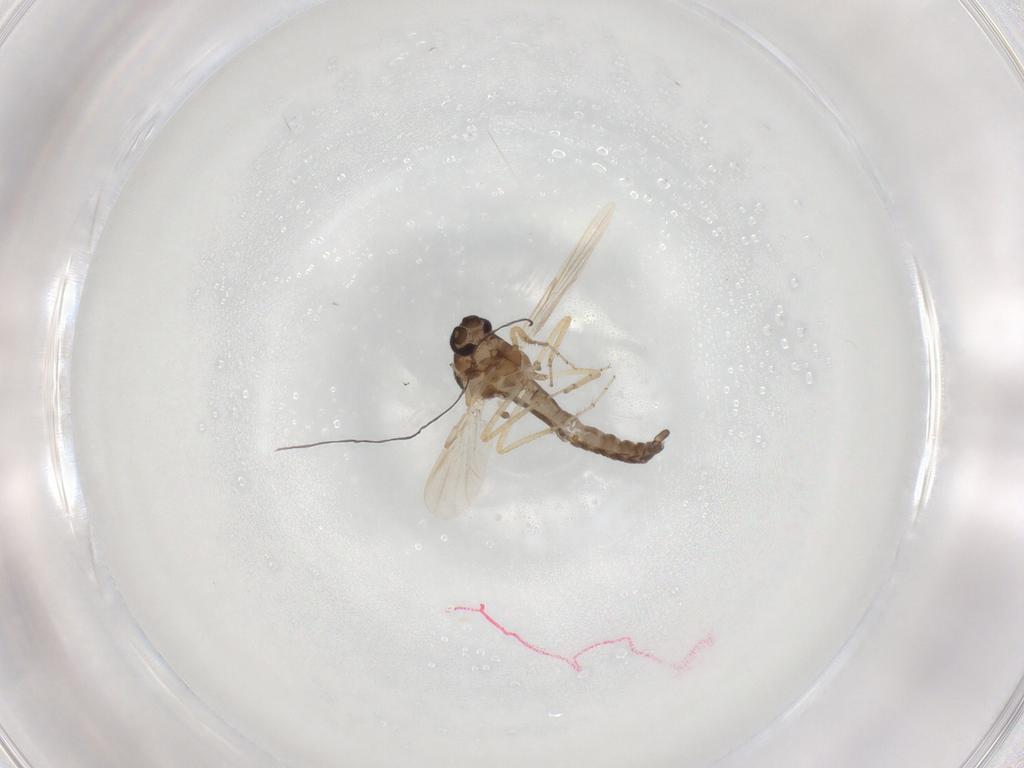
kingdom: Animalia
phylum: Arthropoda
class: Insecta
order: Diptera
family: Ceratopogonidae
